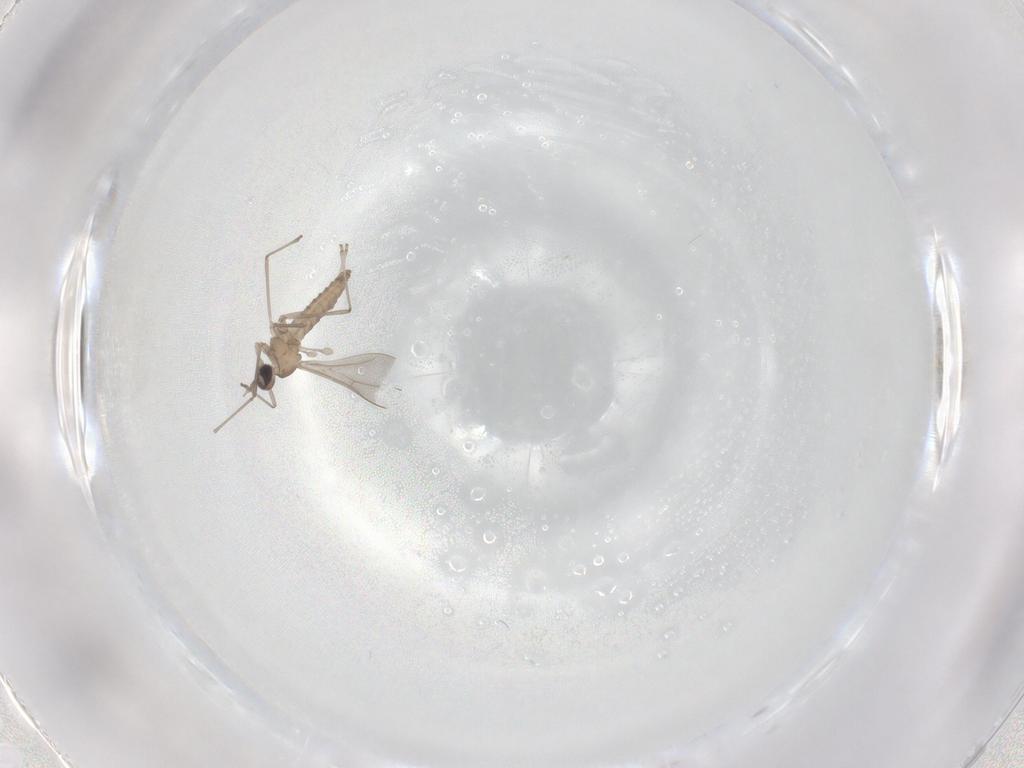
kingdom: Animalia
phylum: Arthropoda
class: Insecta
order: Diptera
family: Cecidomyiidae
